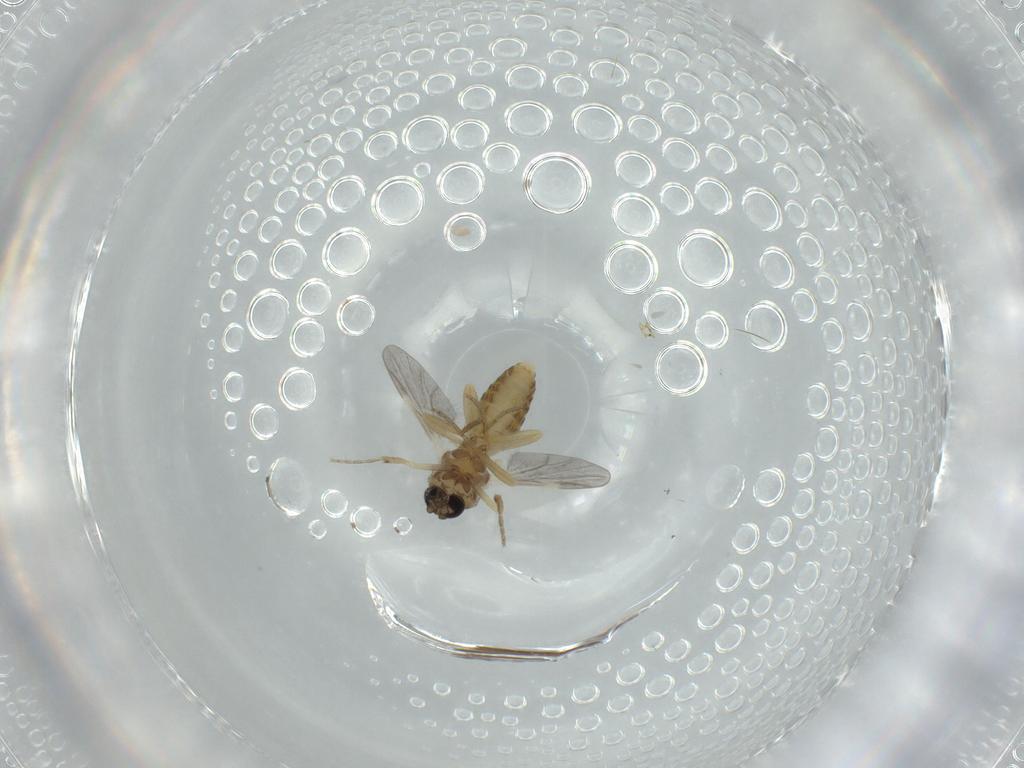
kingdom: Animalia
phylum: Arthropoda
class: Insecta
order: Diptera
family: Ceratopogonidae
